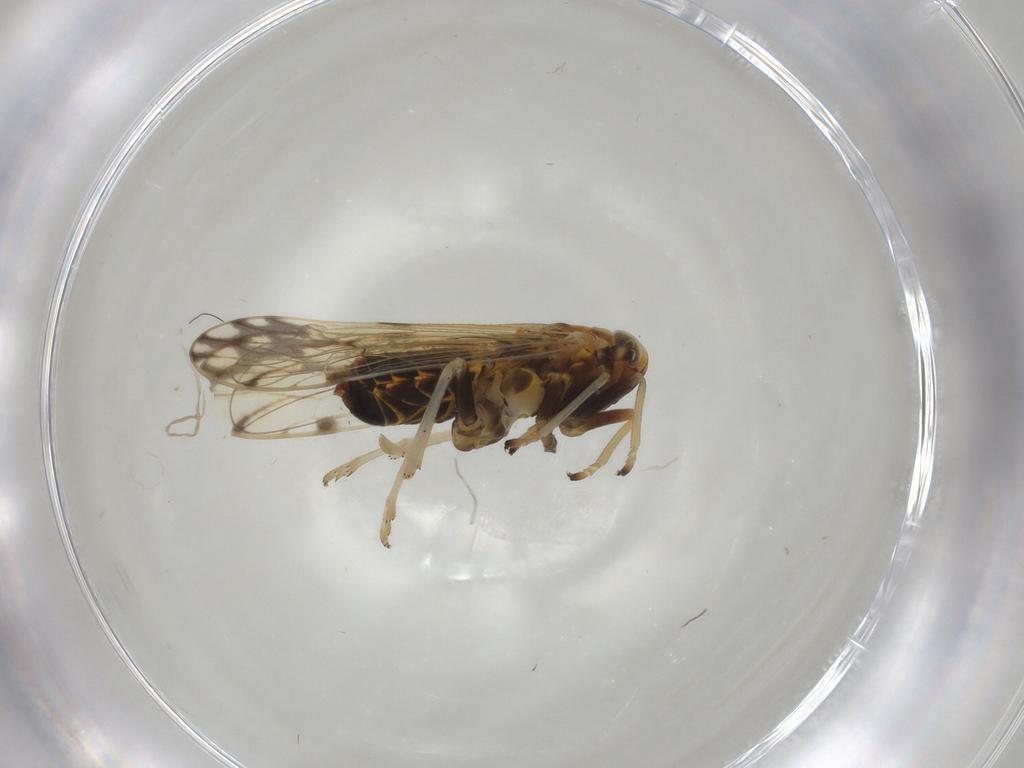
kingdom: Animalia
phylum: Arthropoda
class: Insecta
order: Hemiptera
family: Delphacidae
